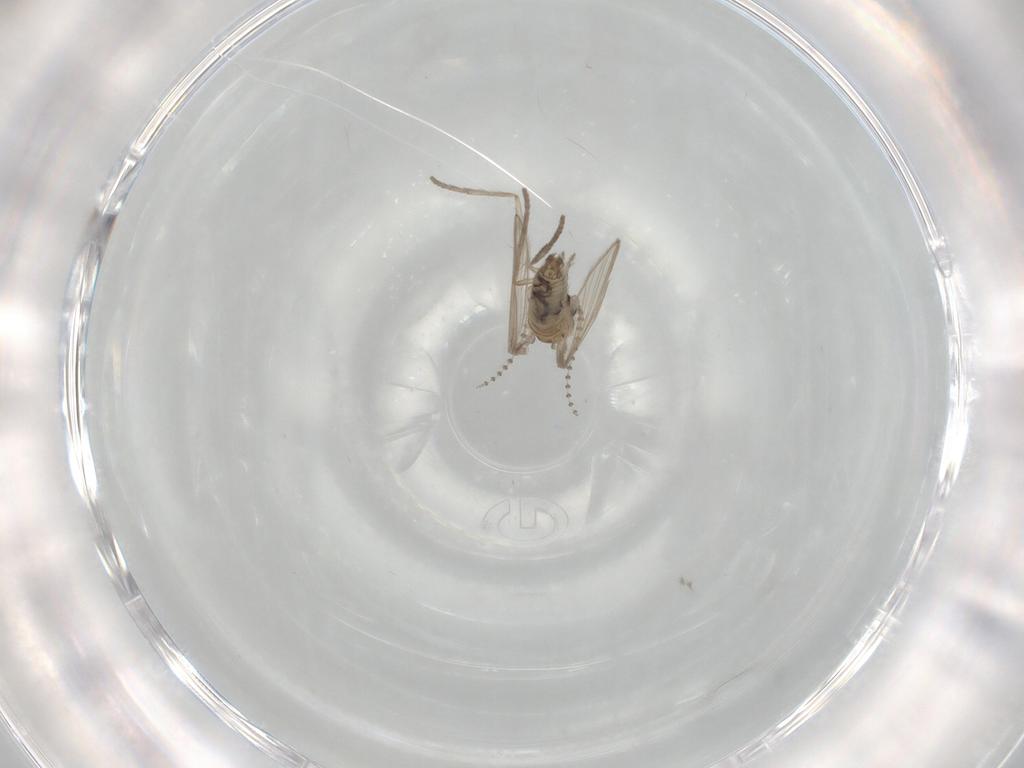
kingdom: Animalia
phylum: Arthropoda
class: Insecta
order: Diptera
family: Psychodidae
